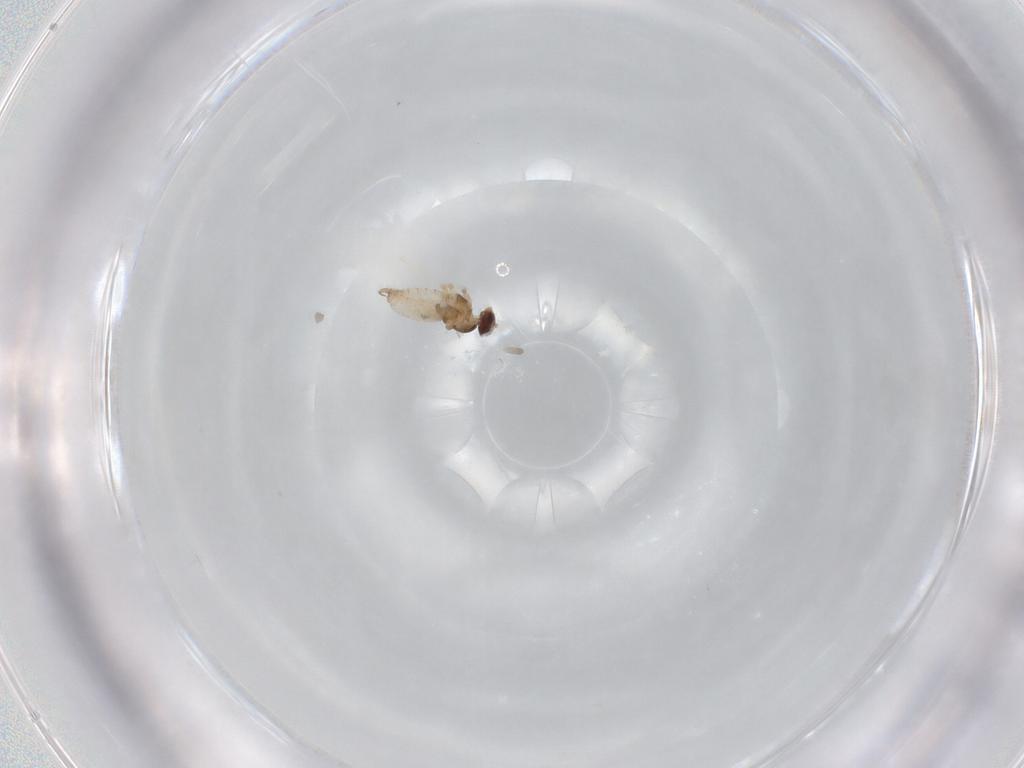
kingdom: Animalia
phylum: Arthropoda
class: Insecta
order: Diptera
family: Cecidomyiidae
